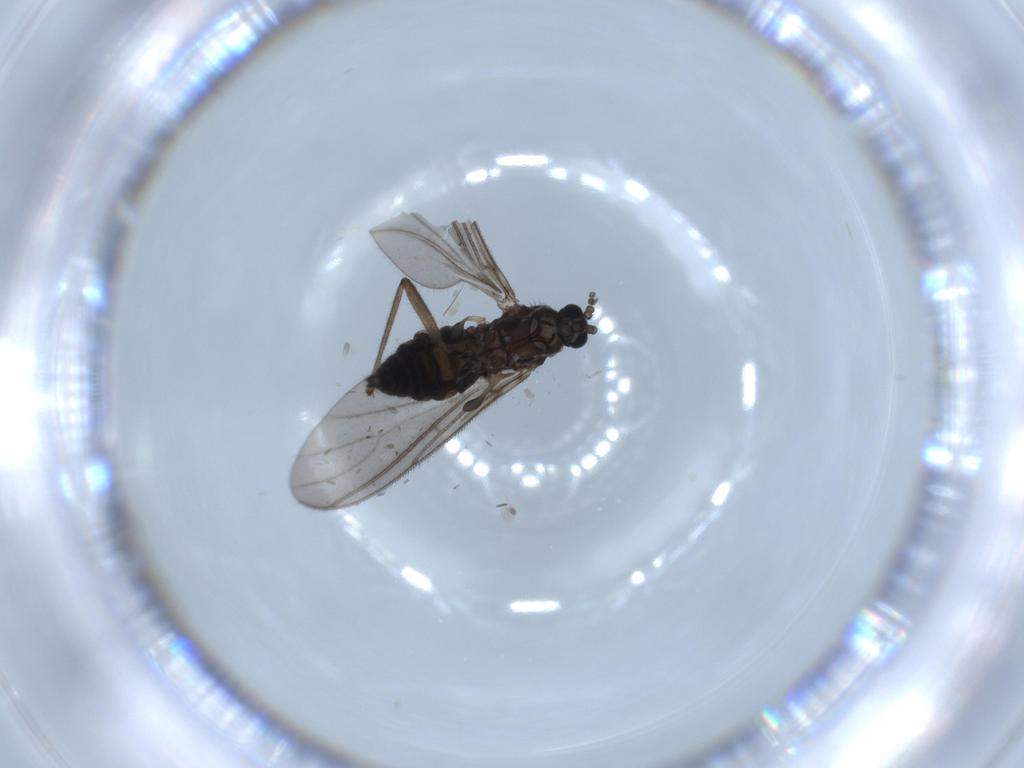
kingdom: Animalia
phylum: Arthropoda
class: Insecta
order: Diptera
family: Sciaridae
